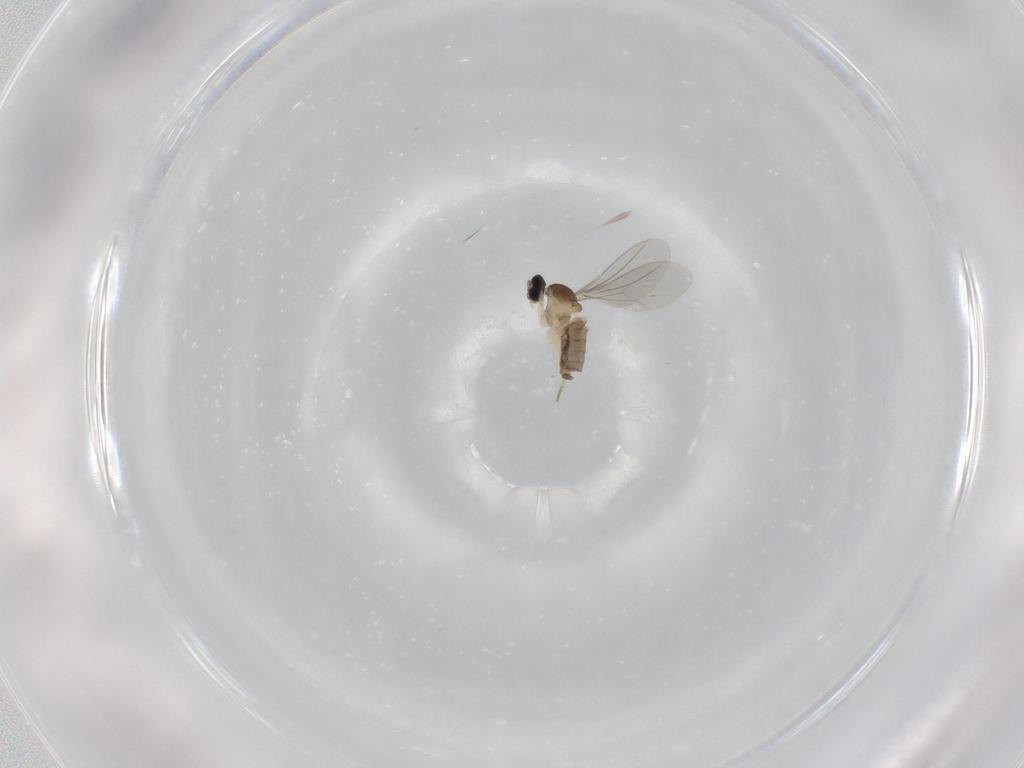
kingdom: Animalia
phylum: Arthropoda
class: Insecta
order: Diptera
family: Cecidomyiidae
